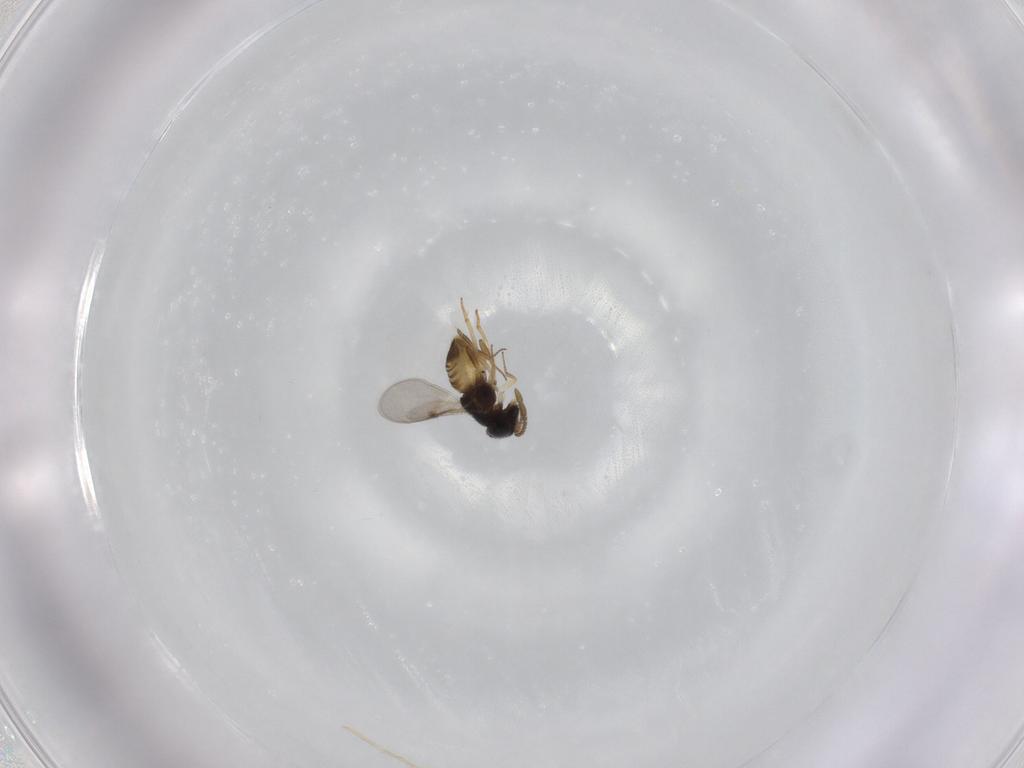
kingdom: Animalia
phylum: Arthropoda
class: Insecta
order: Hymenoptera
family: Encyrtidae
